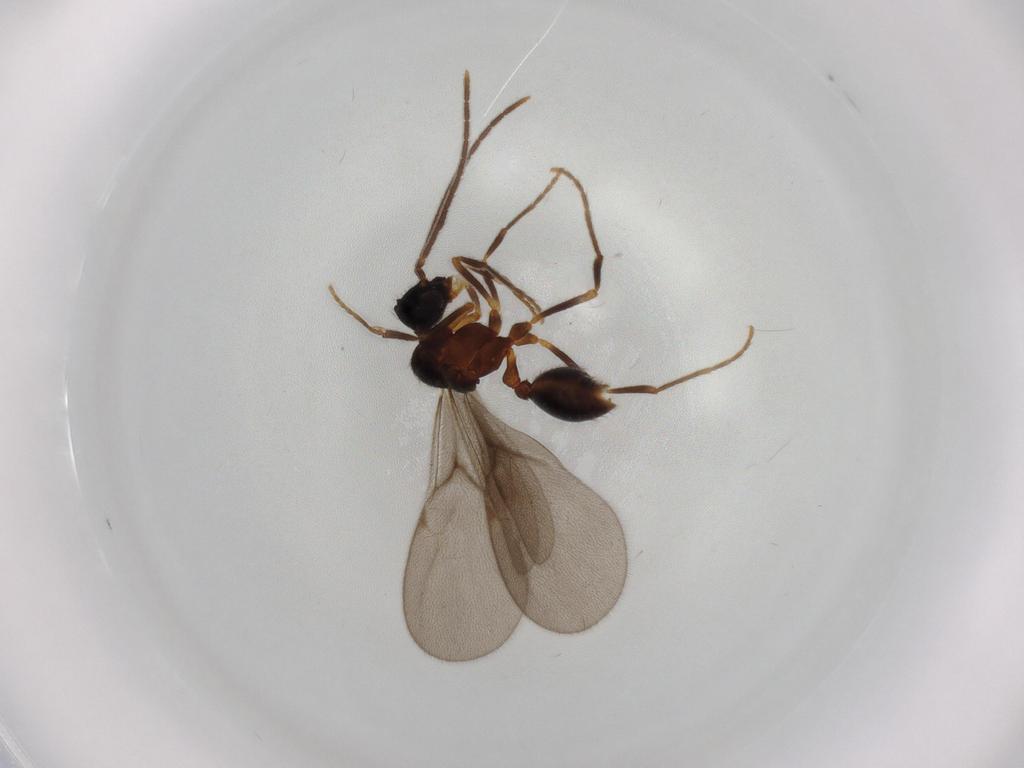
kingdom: Animalia
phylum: Arthropoda
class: Insecta
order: Hymenoptera
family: Formicidae
